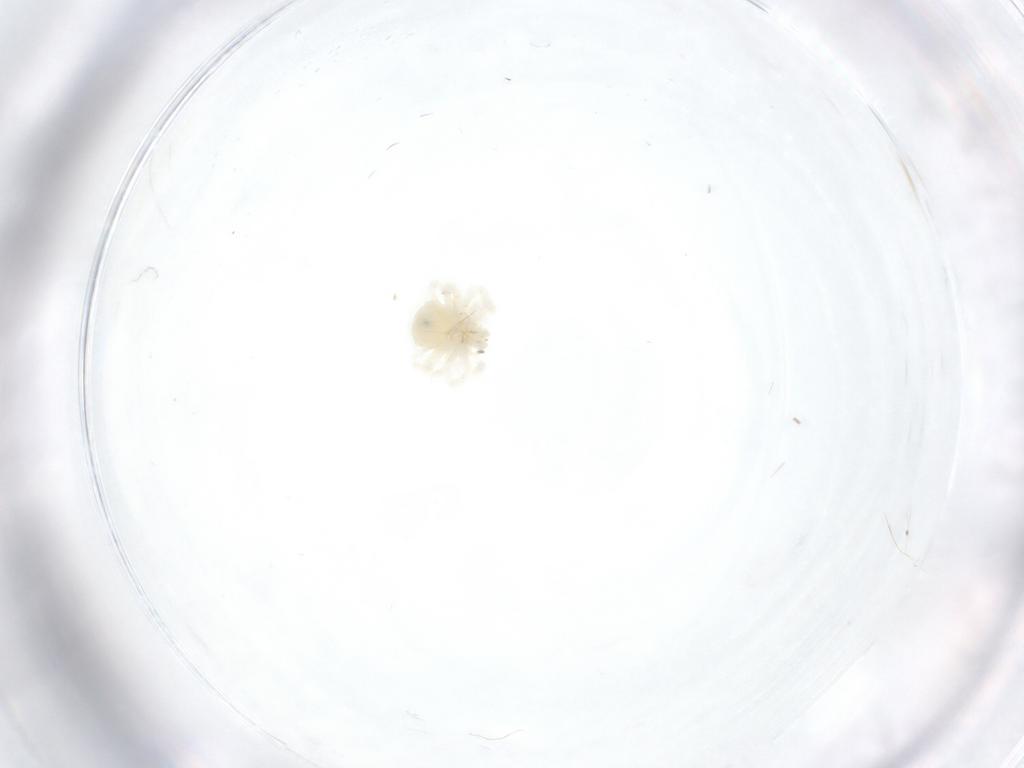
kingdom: Animalia
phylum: Arthropoda
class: Arachnida
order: Trombidiformes
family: Anystidae
